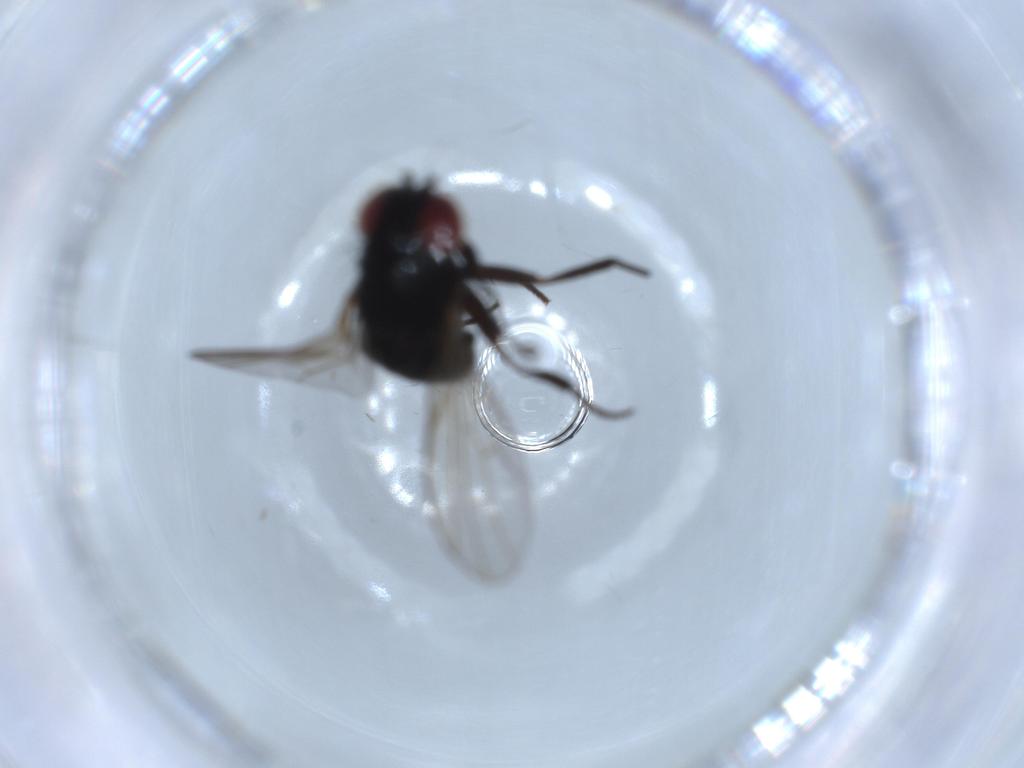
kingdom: Animalia
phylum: Arthropoda
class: Insecta
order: Diptera
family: Agromyzidae
